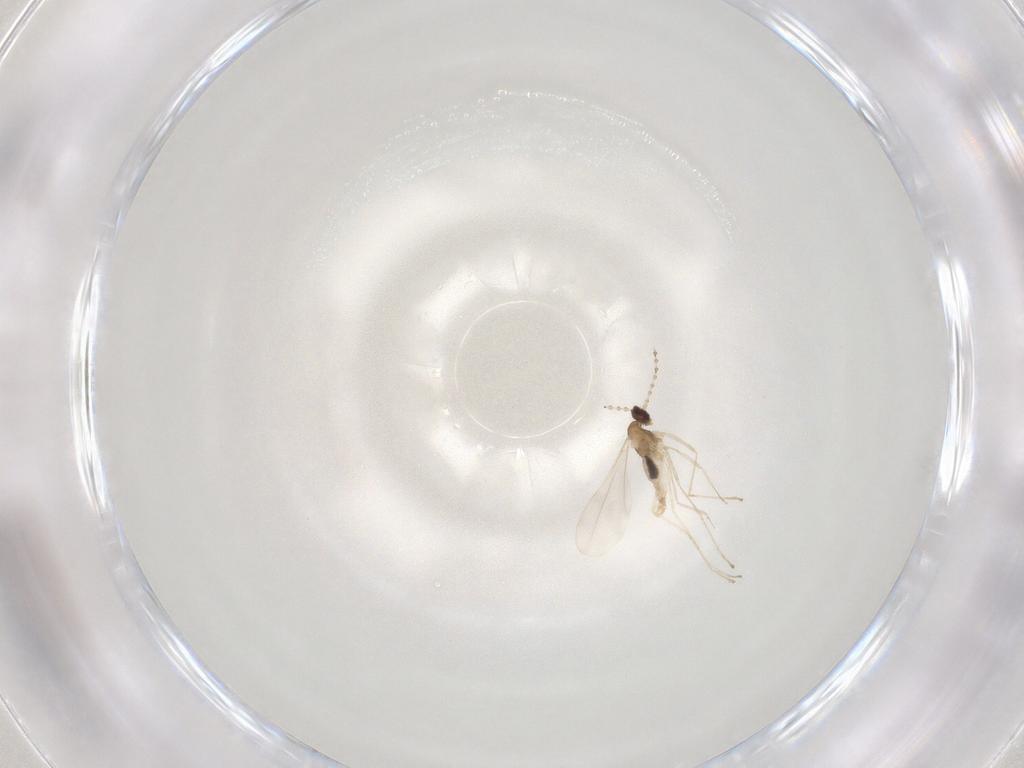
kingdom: Animalia
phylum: Arthropoda
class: Insecta
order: Diptera
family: Cecidomyiidae
